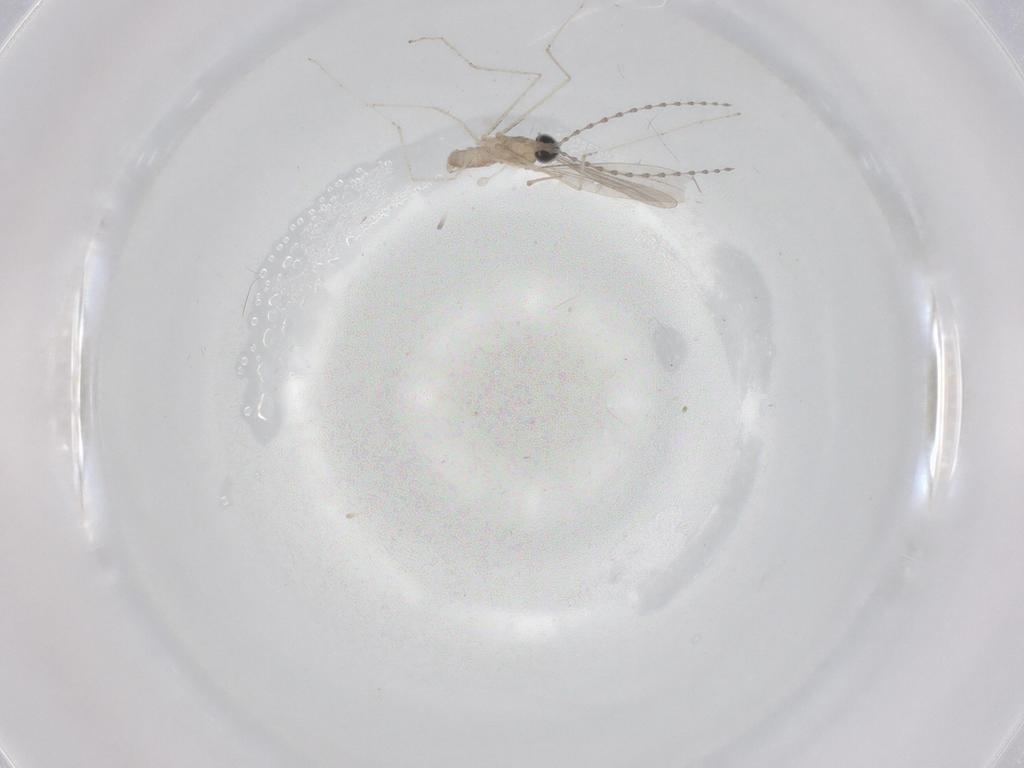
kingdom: Animalia
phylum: Arthropoda
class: Insecta
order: Diptera
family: Cecidomyiidae
